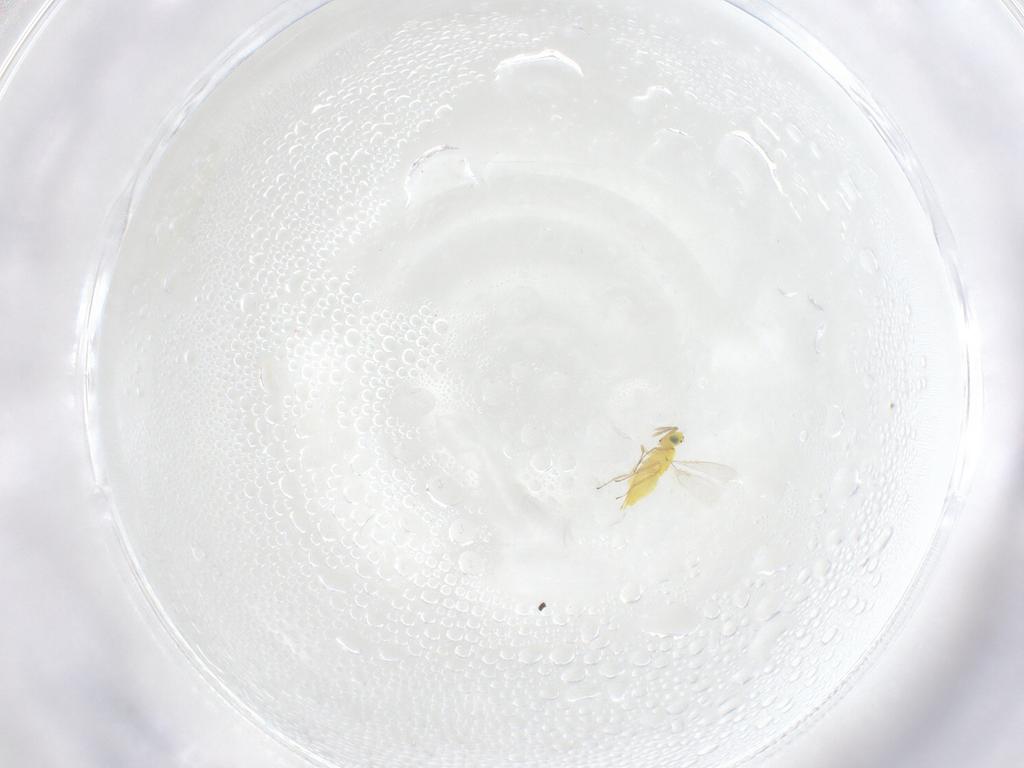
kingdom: Animalia
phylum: Arthropoda
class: Insecta
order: Hymenoptera
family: Aphelinidae
